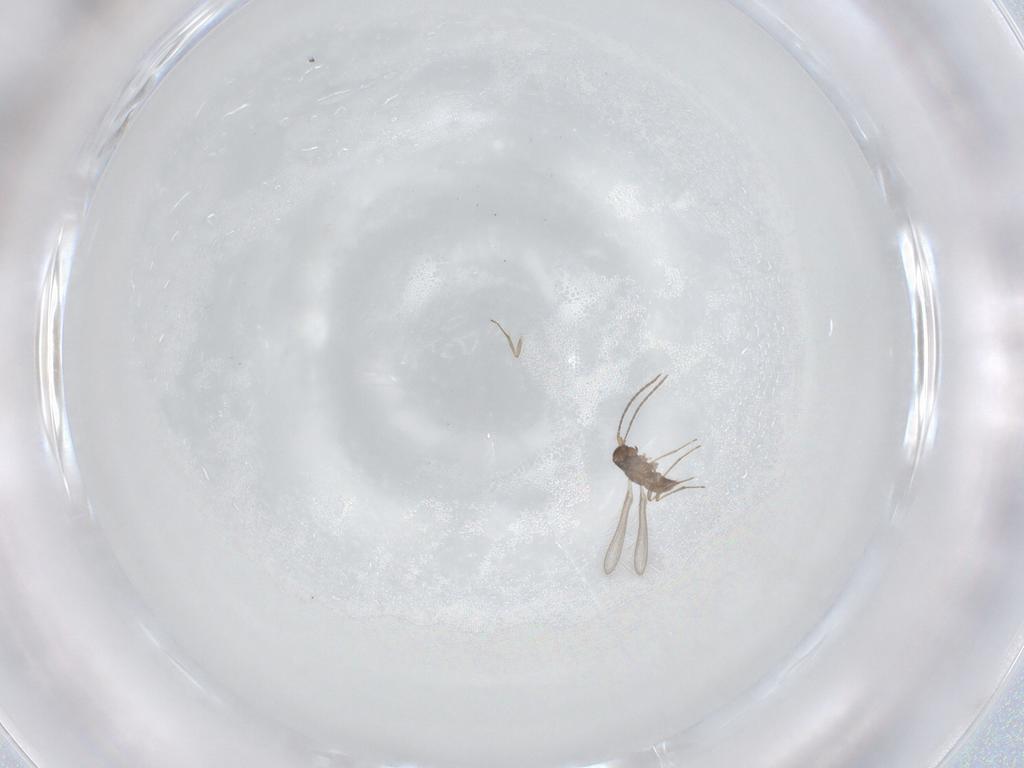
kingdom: Animalia
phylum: Arthropoda
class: Insecta
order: Hymenoptera
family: Mymaridae
